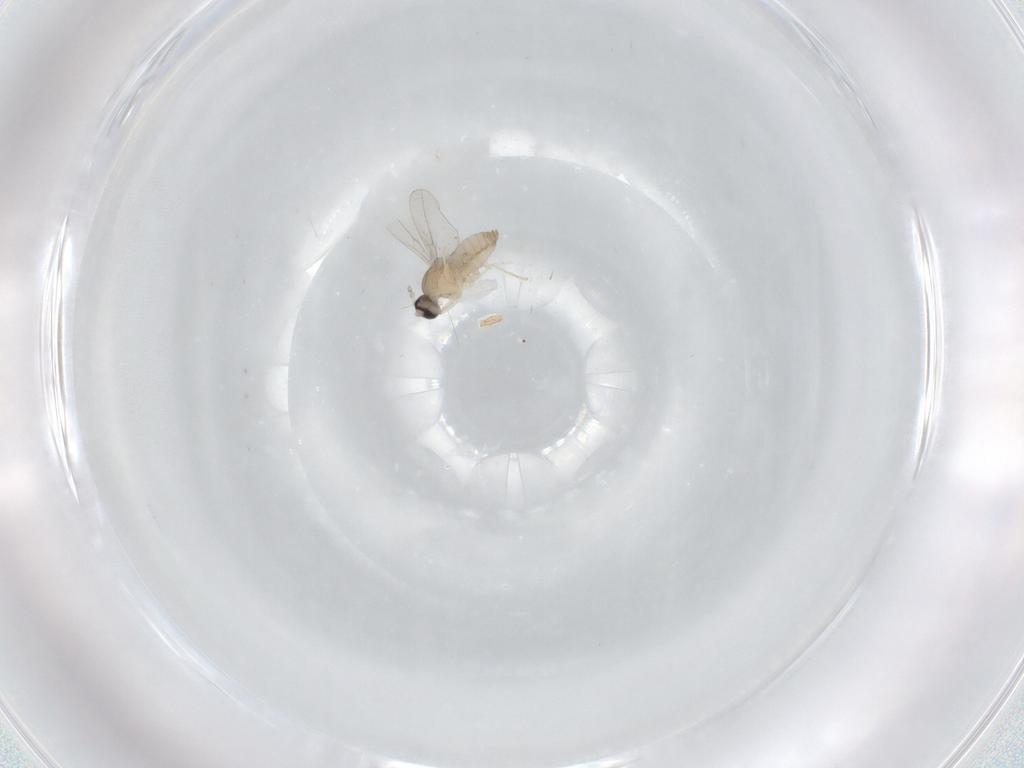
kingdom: Animalia
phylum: Arthropoda
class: Insecta
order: Diptera
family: Cecidomyiidae
